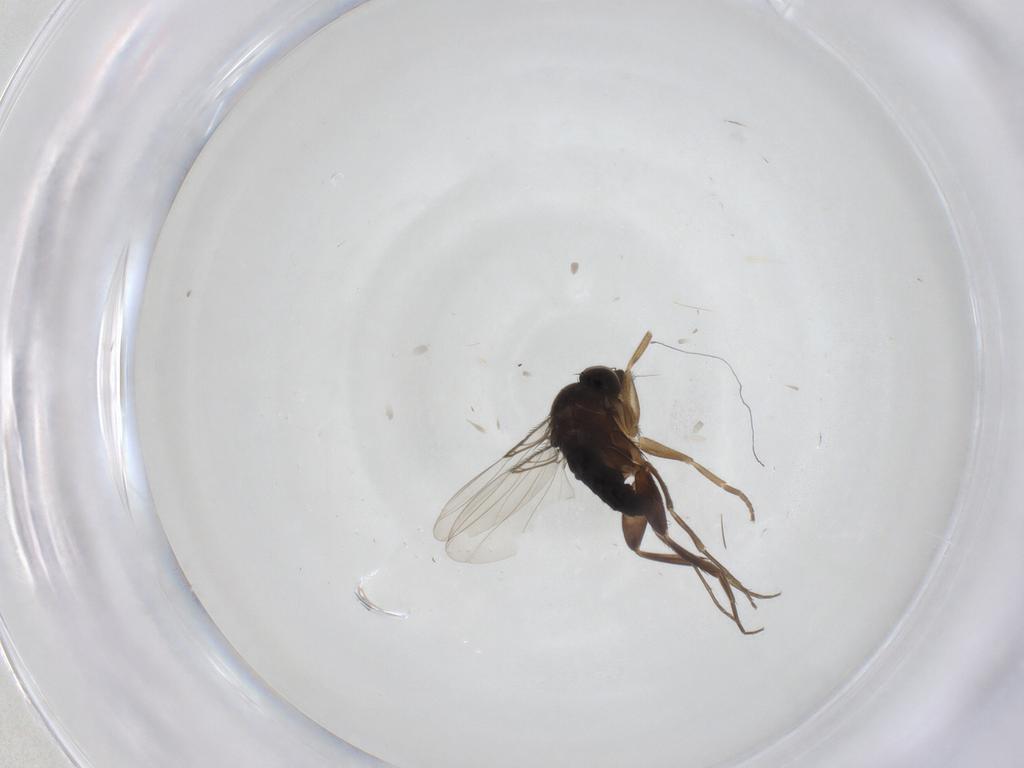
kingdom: Animalia
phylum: Arthropoda
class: Insecta
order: Diptera
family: Phoridae
